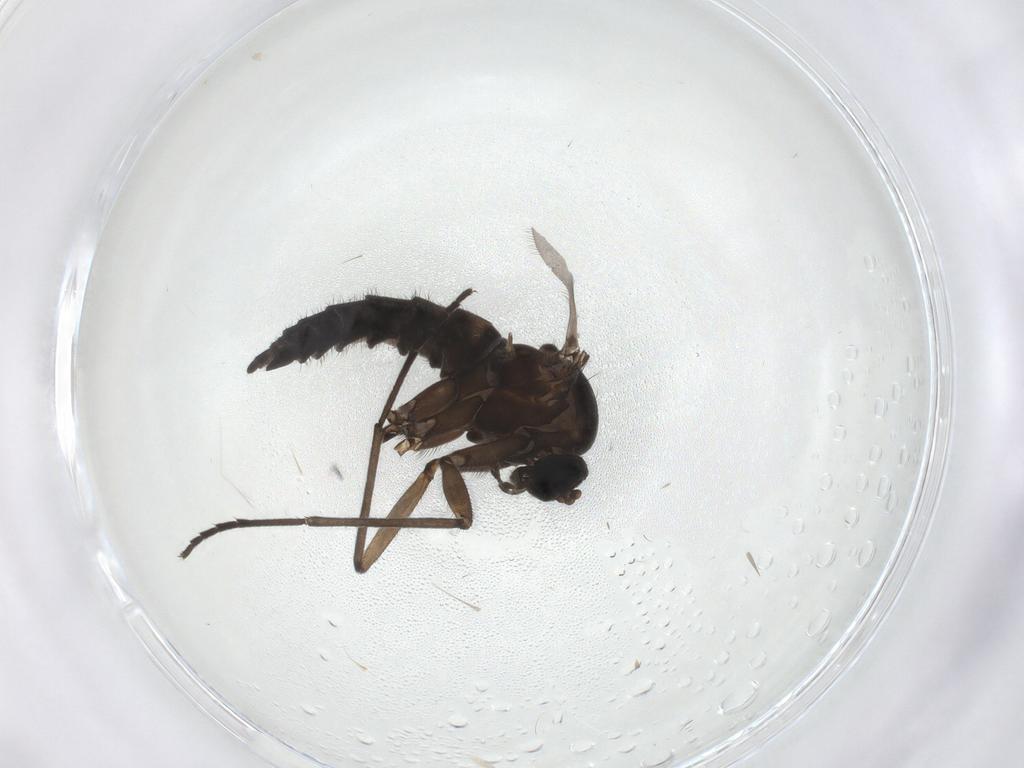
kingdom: Animalia
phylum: Arthropoda
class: Insecta
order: Diptera
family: Sciaridae
